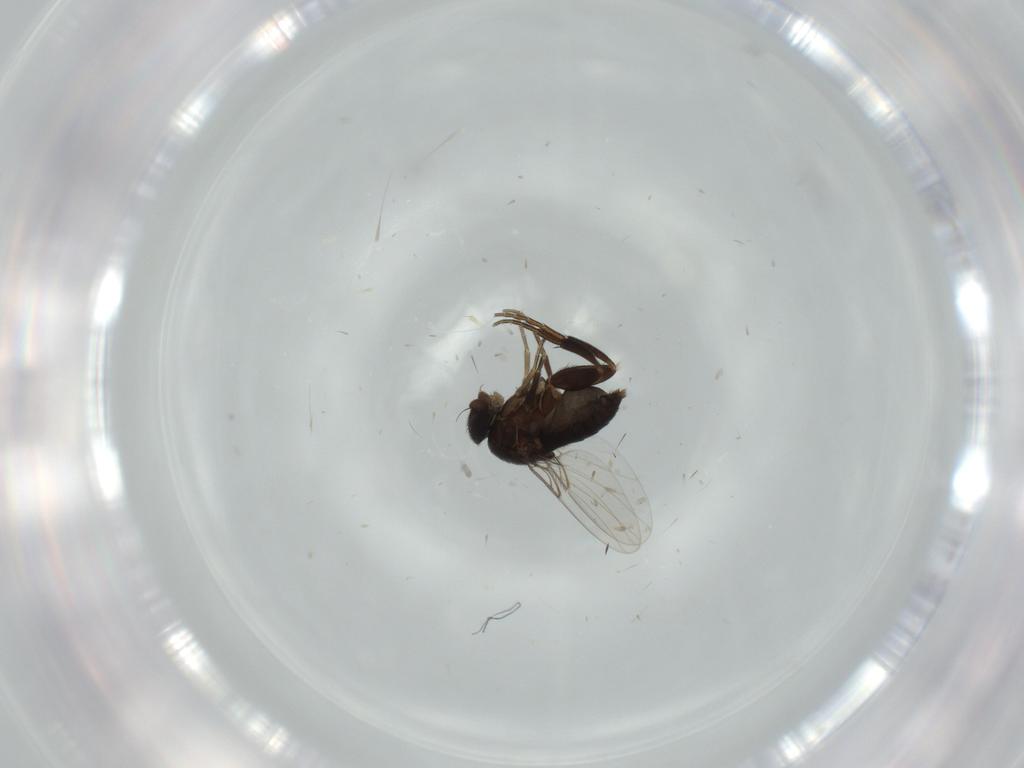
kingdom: Animalia
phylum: Arthropoda
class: Insecta
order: Diptera
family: Phoridae
